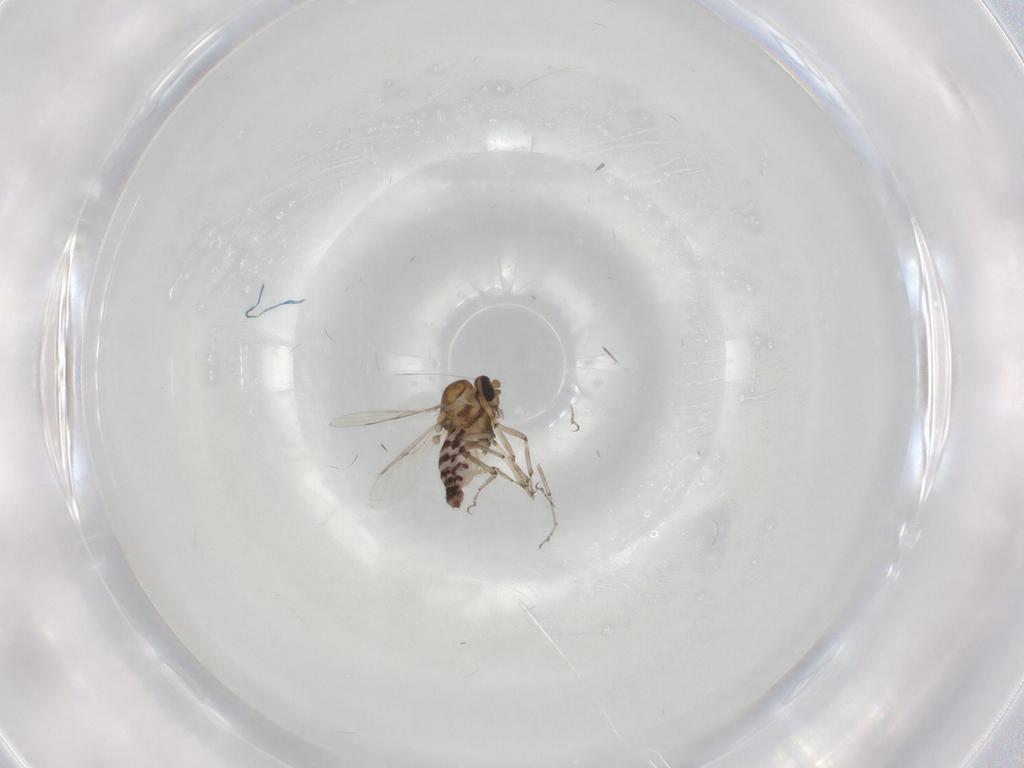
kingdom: Animalia
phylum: Arthropoda
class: Insecta
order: Diptera
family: Ceratopogonidae
